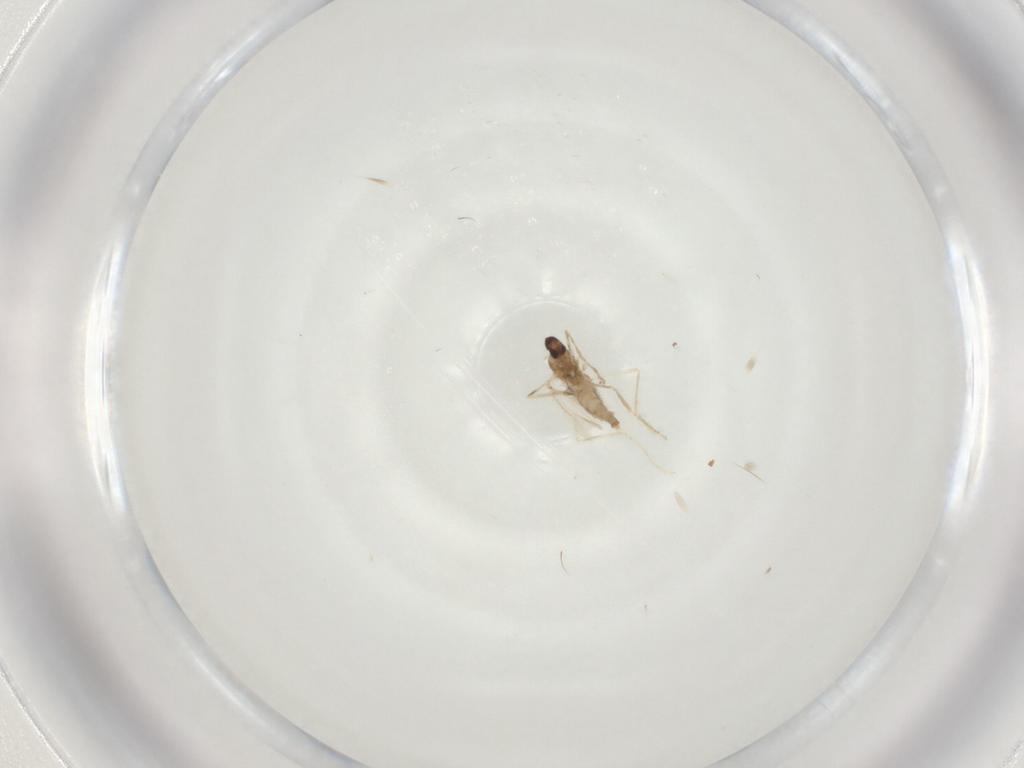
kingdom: Animalia
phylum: Arthropoda
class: Insecta
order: Diptera
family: Cecidomyiidae
